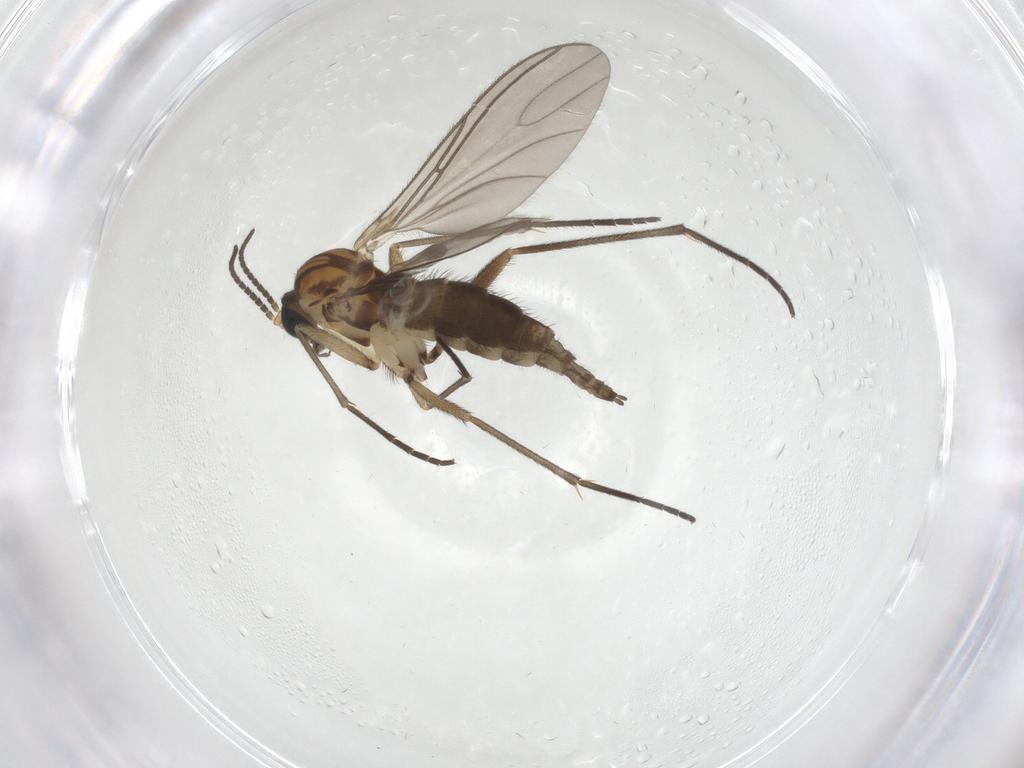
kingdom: Animalia
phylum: Arthropoda
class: Insecta
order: Diptera
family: Sciaridae
